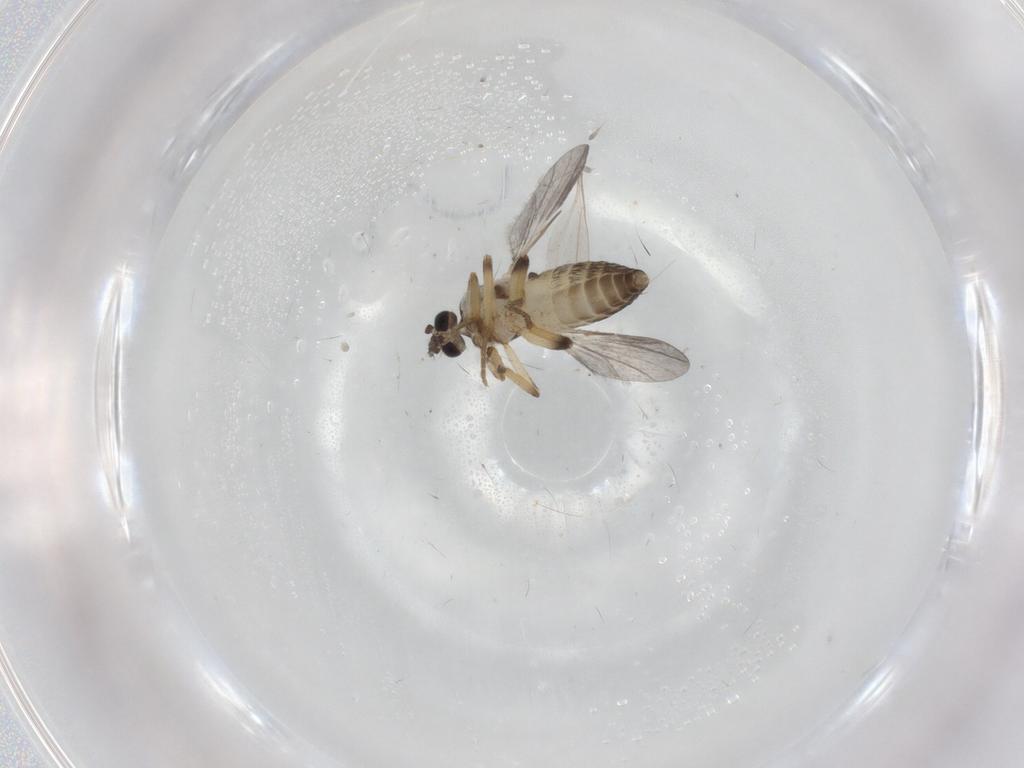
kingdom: Animalia
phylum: Arthropoda
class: Insecta
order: Diptera
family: Ceratopogonidae
